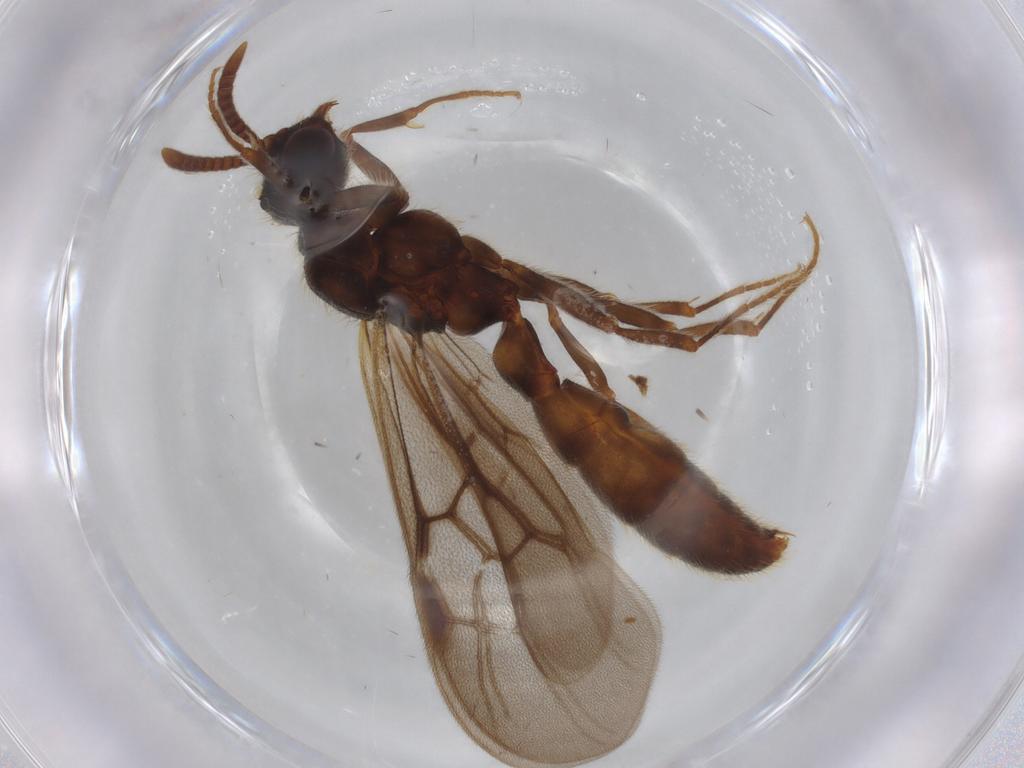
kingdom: Animalia
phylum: Arthropoda
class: Insecta
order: Hymenoptera
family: Formicidae
